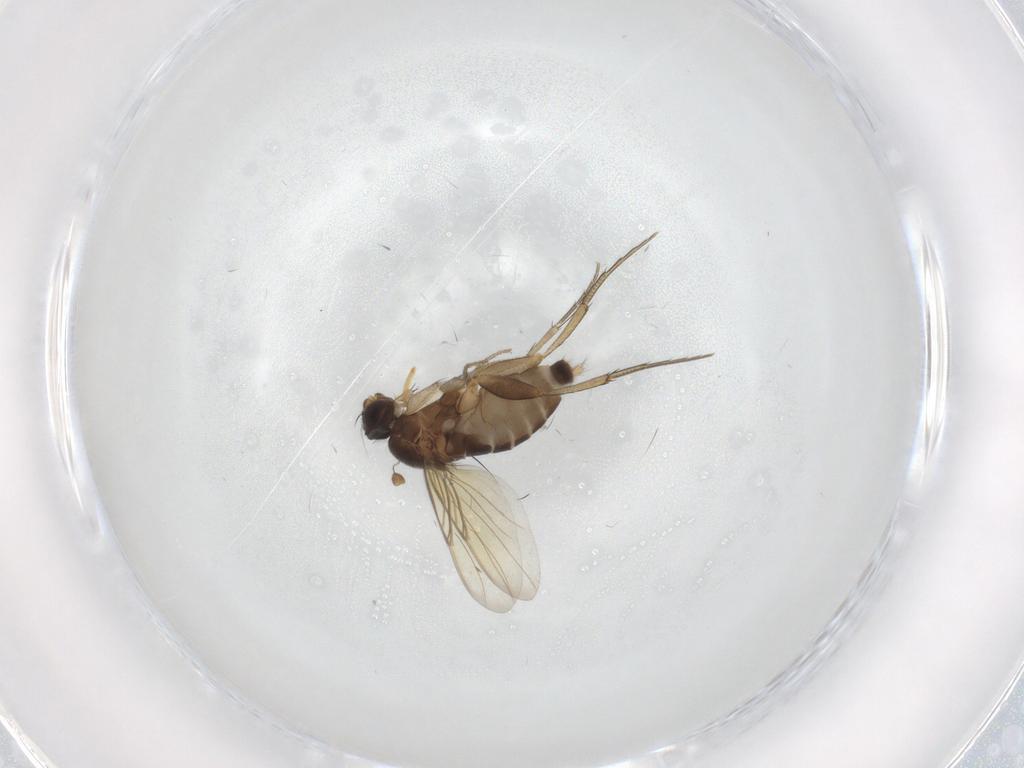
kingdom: Animalia
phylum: Arthropoda
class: Insecta
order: Diptera
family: Phoridae
